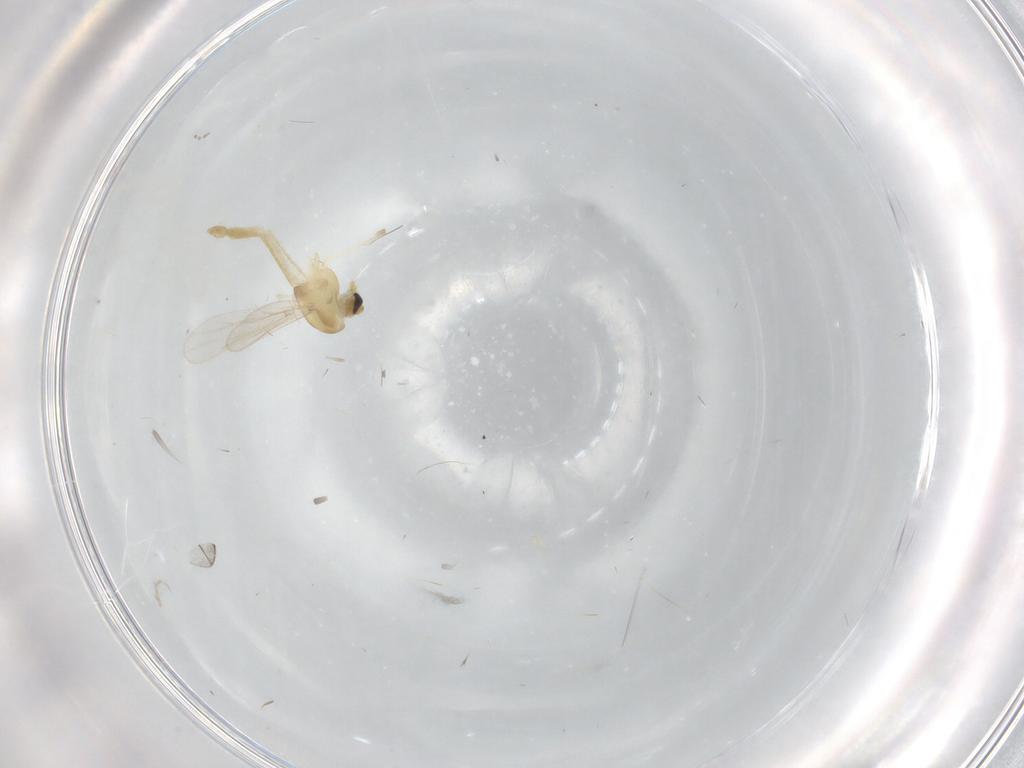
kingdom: Animalia
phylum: Arthropoda
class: Insecta
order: Diptera
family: Chironomidae
